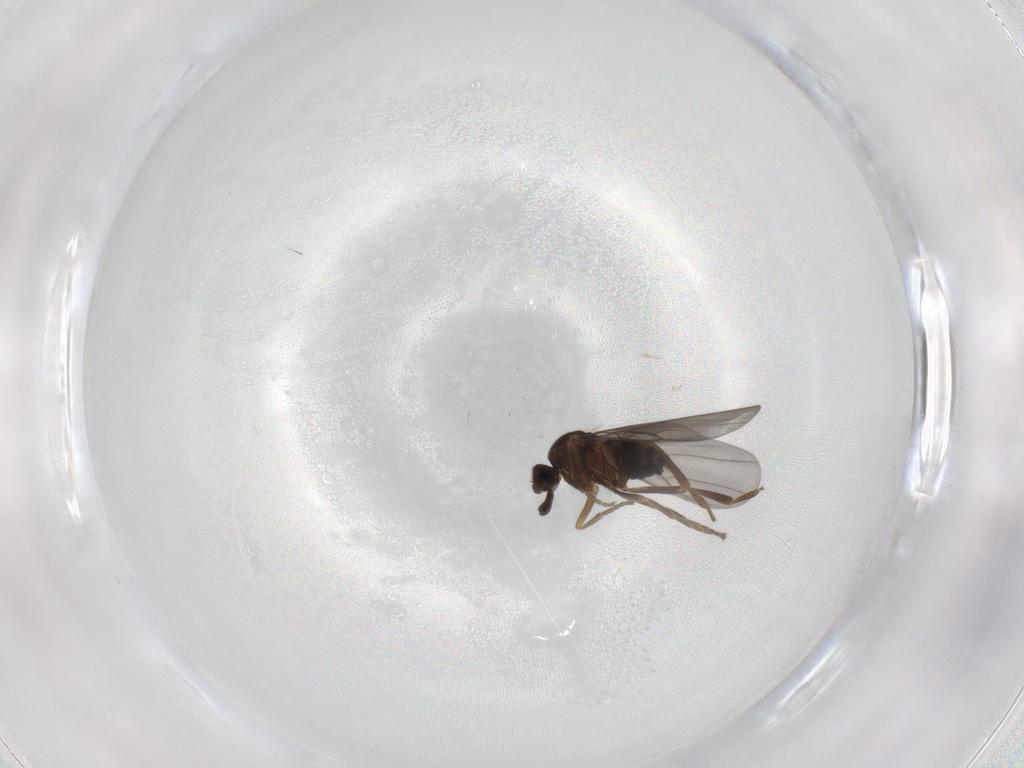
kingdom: Animalia
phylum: Arthropoda
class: Insecta
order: Diptera
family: Phoridae
